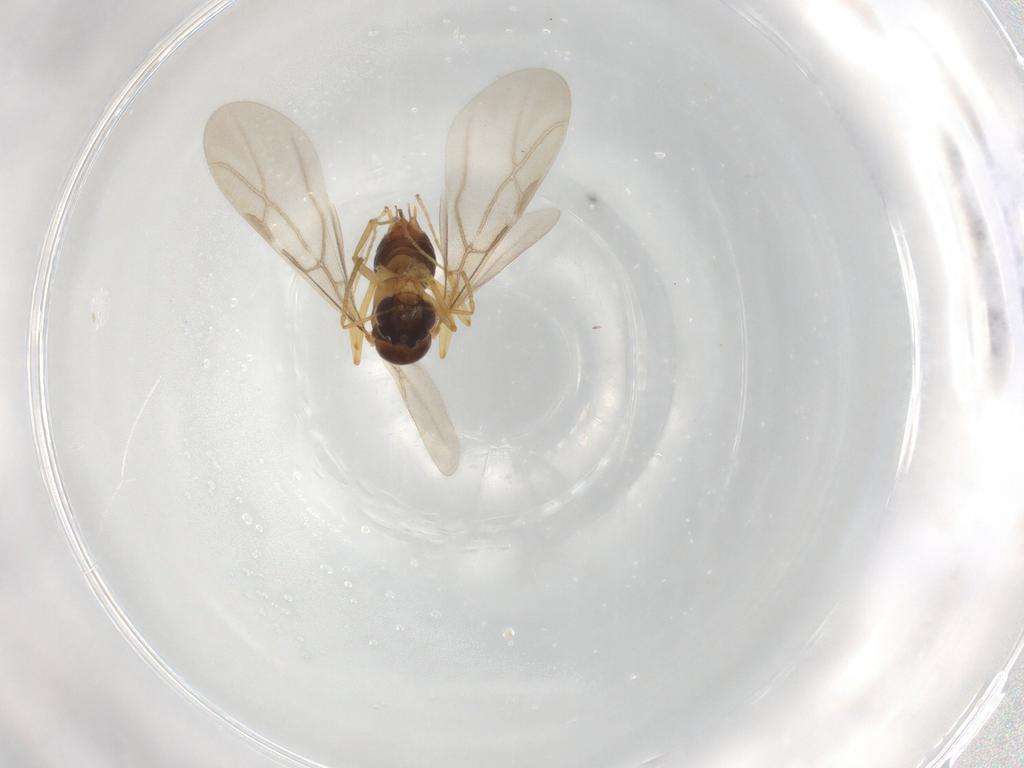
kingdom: Animalia
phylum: Arthropoda
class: Insecta
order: Hymenoptera
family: Formicidae
